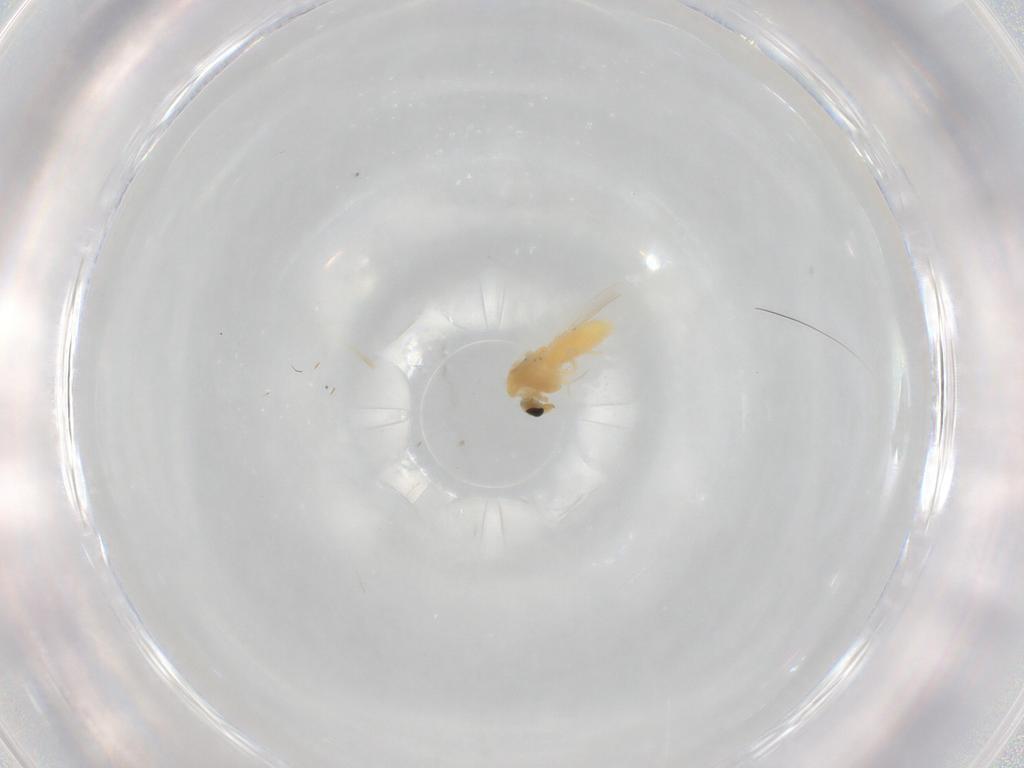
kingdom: Animalia
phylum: Arthropoda
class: Insecta
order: Diptera
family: Chironomidae
